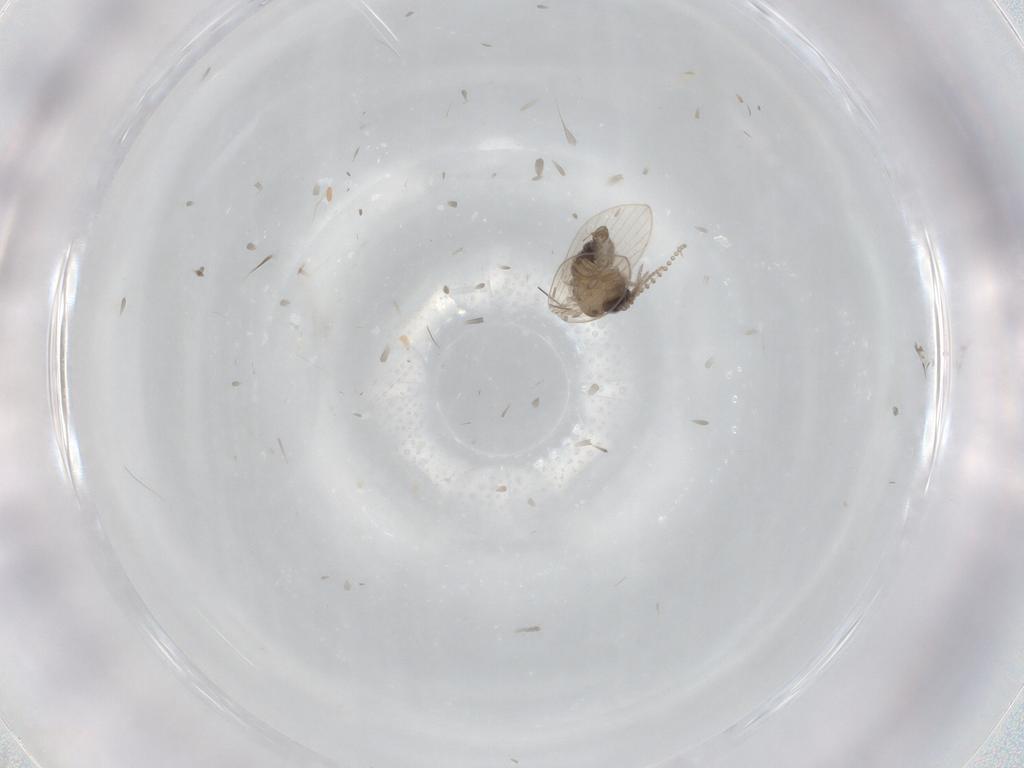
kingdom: Animalia
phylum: Arthropoda
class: Insecta
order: Diptera
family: Psychodidae
